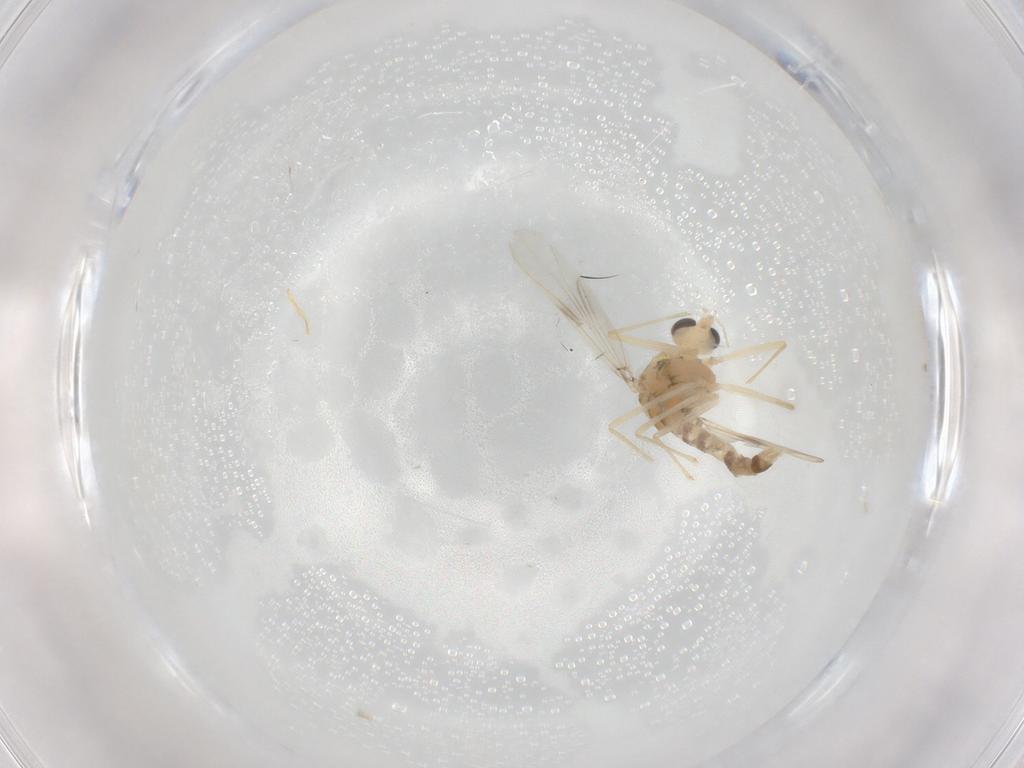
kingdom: Animalia
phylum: Arthropoda
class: Insecta
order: Diptera
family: Chironomidae
